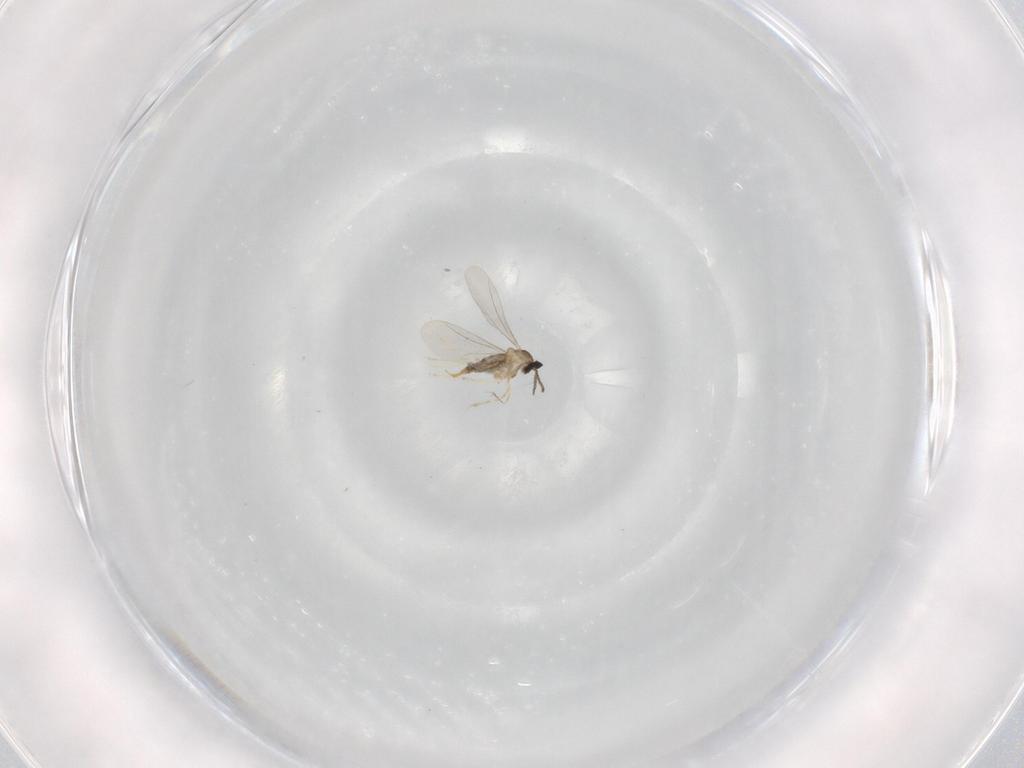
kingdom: Animalia
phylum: Arthropoda
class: Insecta
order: Diptera
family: Cecidomyiidae
